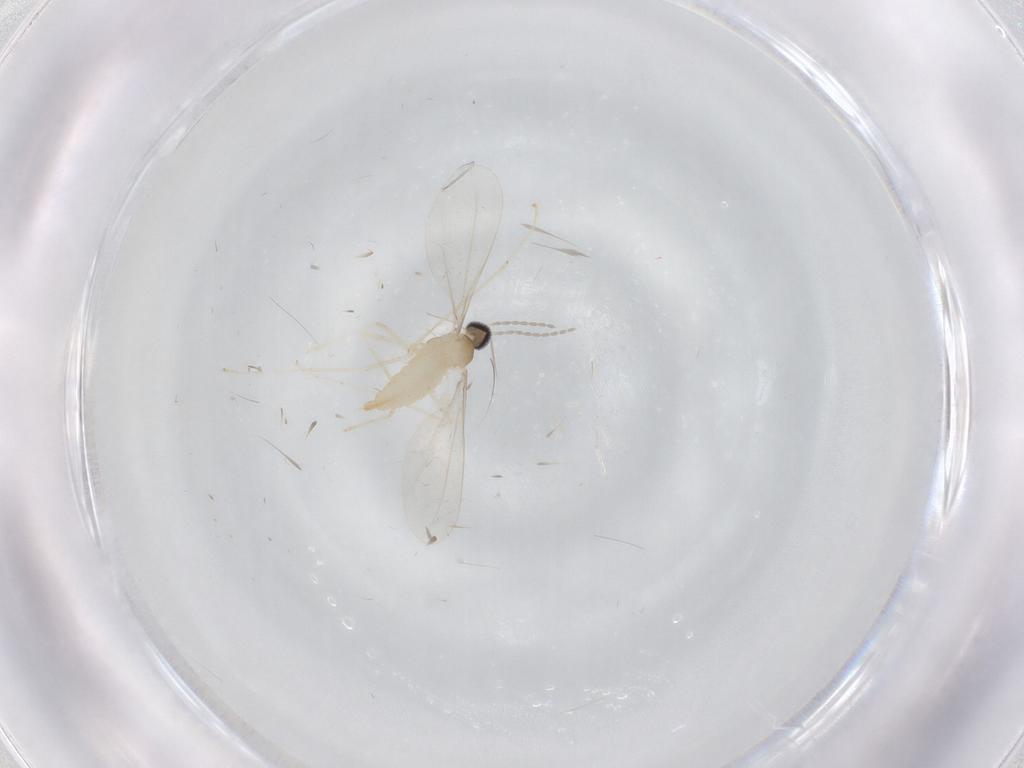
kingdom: Animalia
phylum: Arthropoda
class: Insecta
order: Diptera
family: Cecidomyiidae
